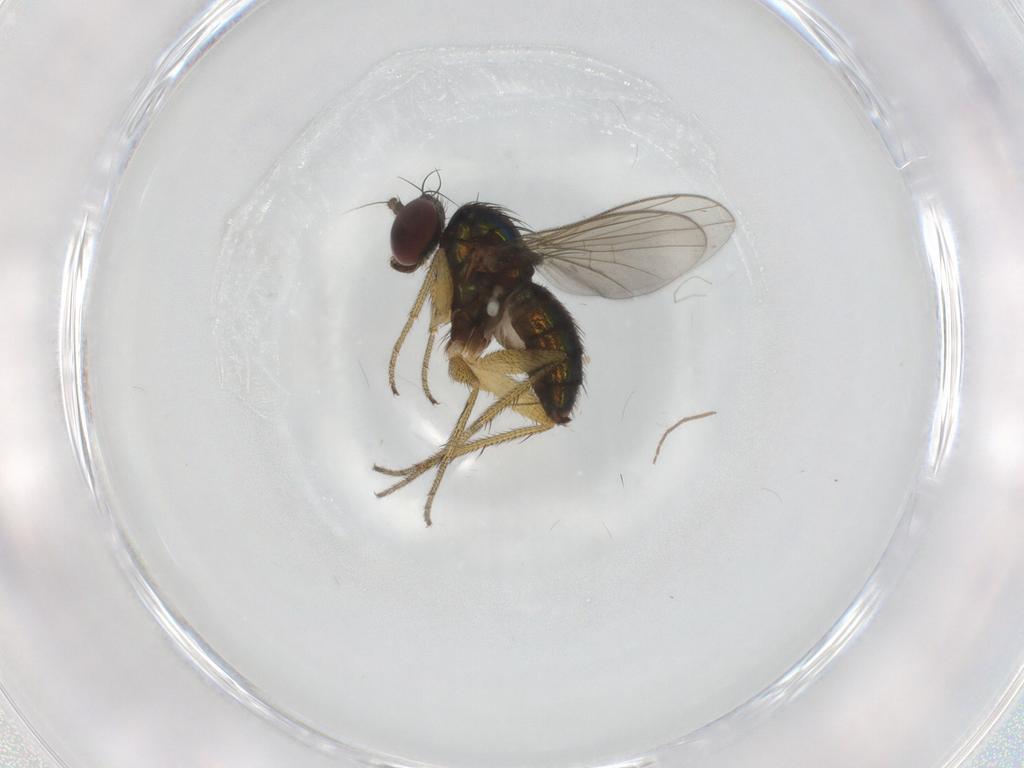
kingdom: Animalia
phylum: Arthropoda
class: Insecta
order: Diptera
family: Dolichopodidae
